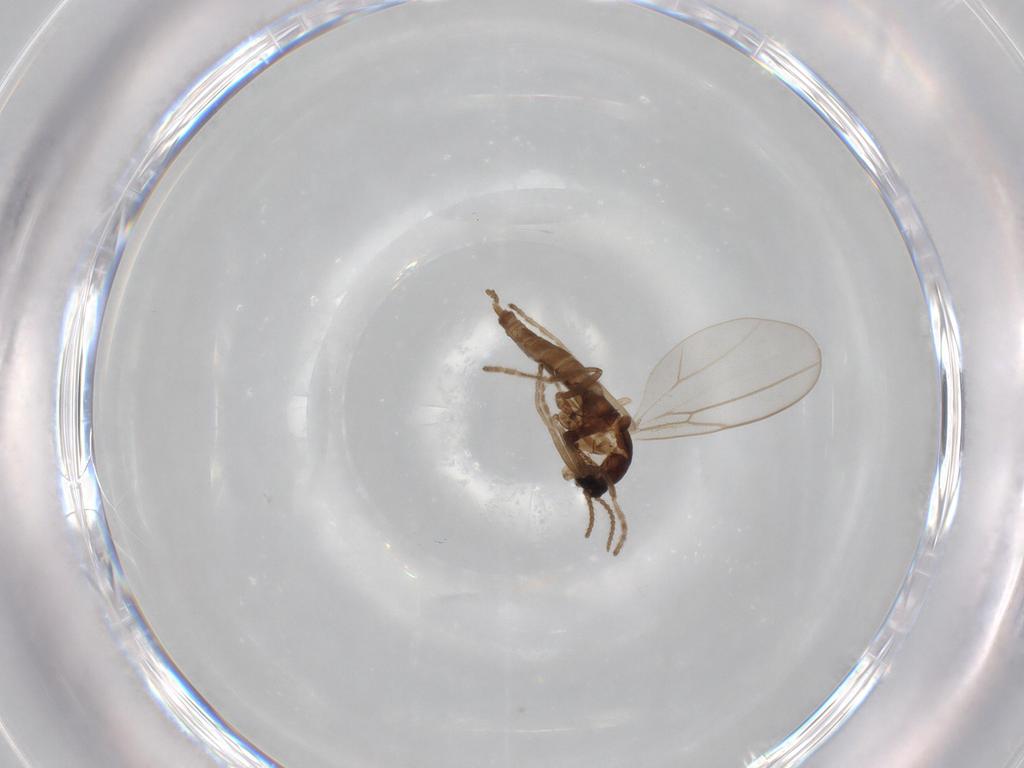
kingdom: Animalia
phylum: Arthropoda
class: Insecta
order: Diptera
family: Cecidomyiidae
